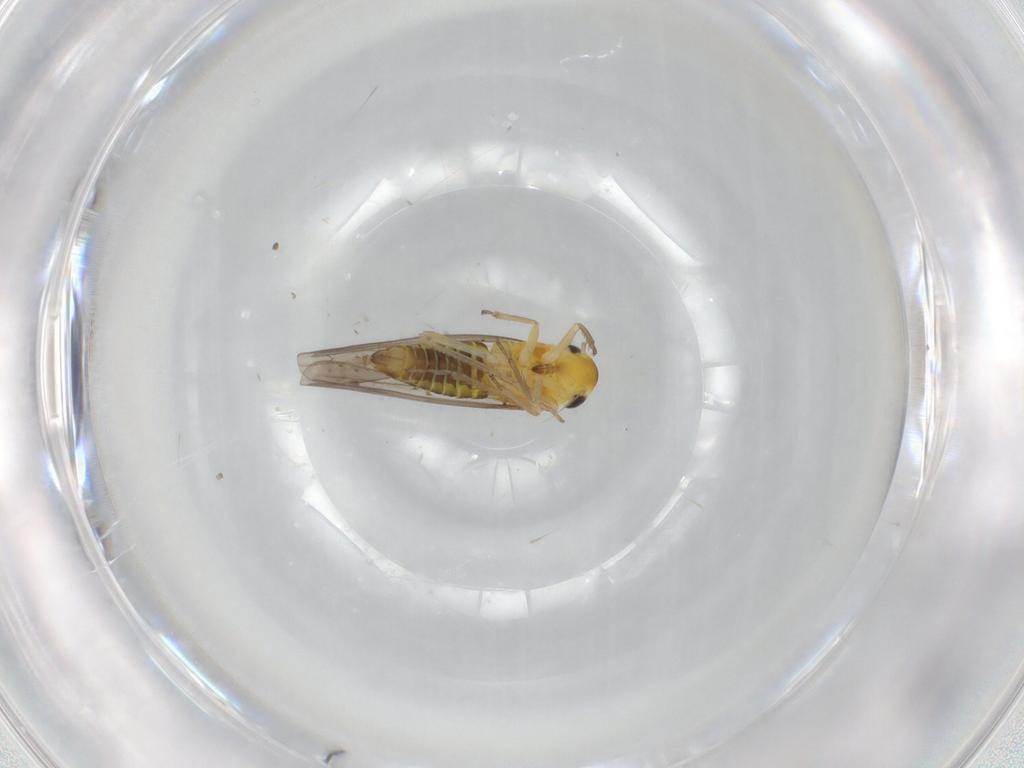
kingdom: Animalia
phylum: Arthropoda
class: Insecta
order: Hemiptera
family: Cicadellidae
